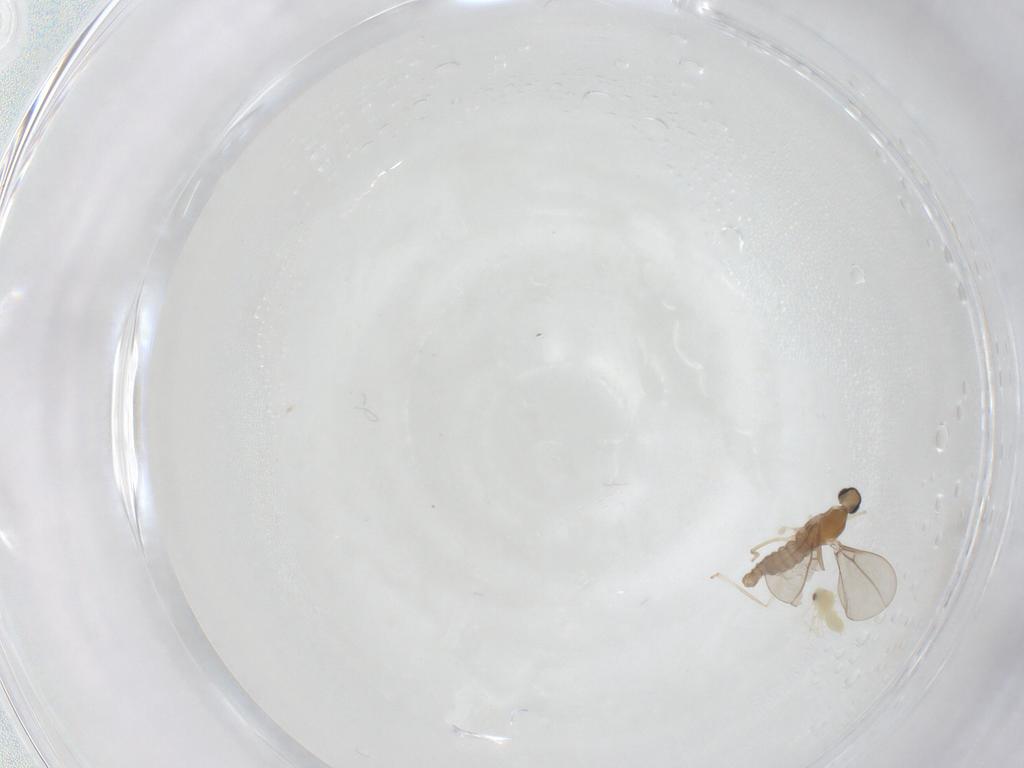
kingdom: Animalia
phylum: Arthropoda
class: Insecta
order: Diptera
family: Cecidomyiidae
